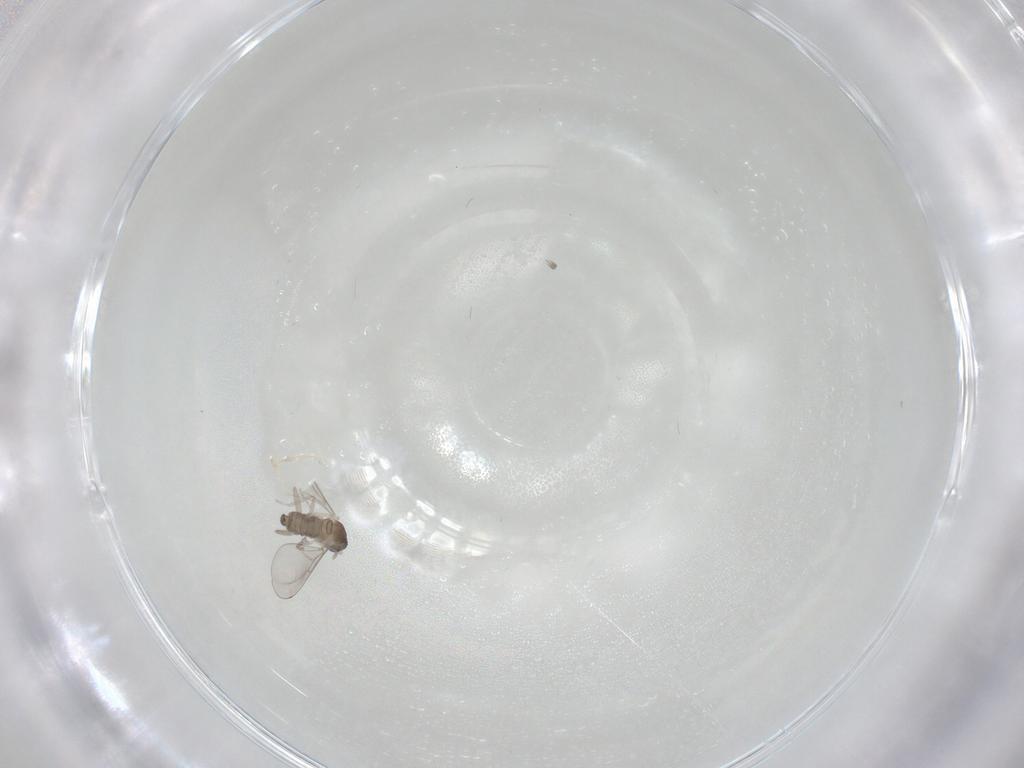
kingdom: Animalia
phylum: Arthropoda
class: Insecta
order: Diptera
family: Cecidomyiidae
